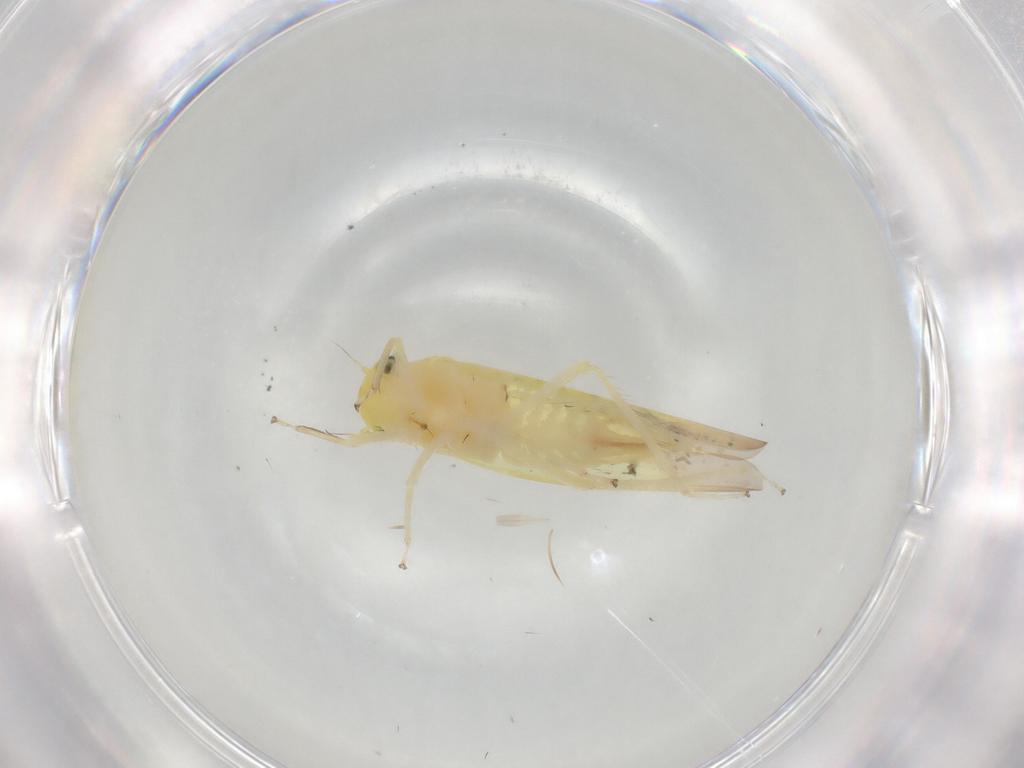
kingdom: Animalia
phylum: Arthropoda
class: Insecta
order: Hemiptera
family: Cicadellidae
